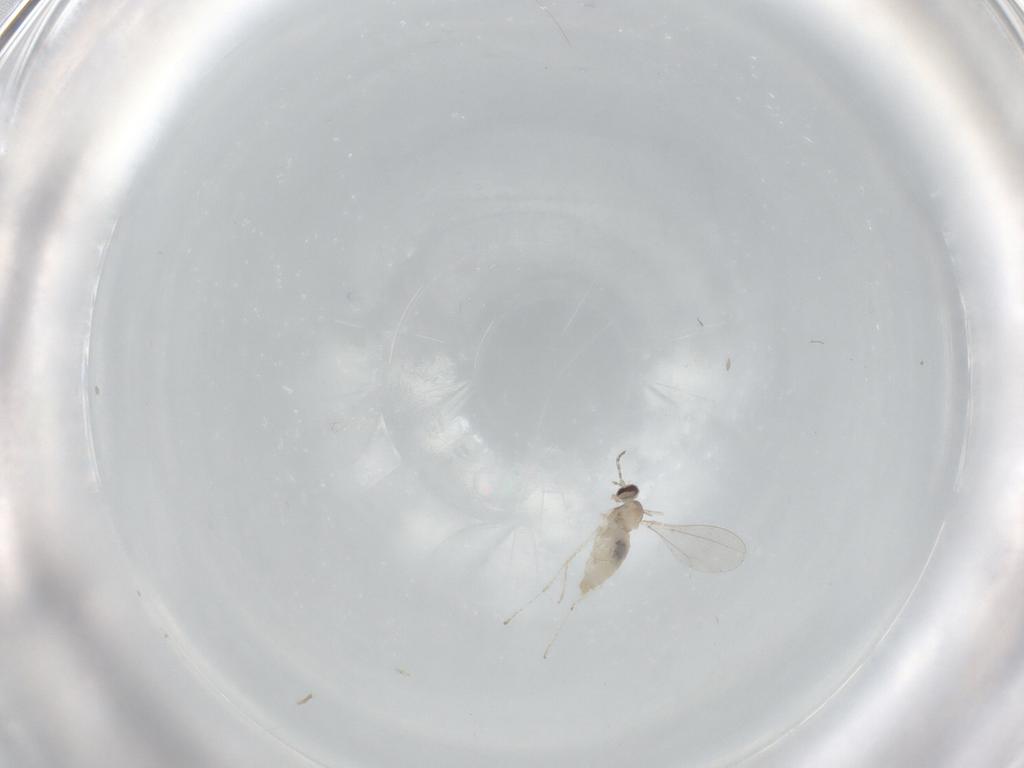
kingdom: Animalia
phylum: Arthropoda
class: Insecta
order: Diptera
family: Cecidomyiidae
